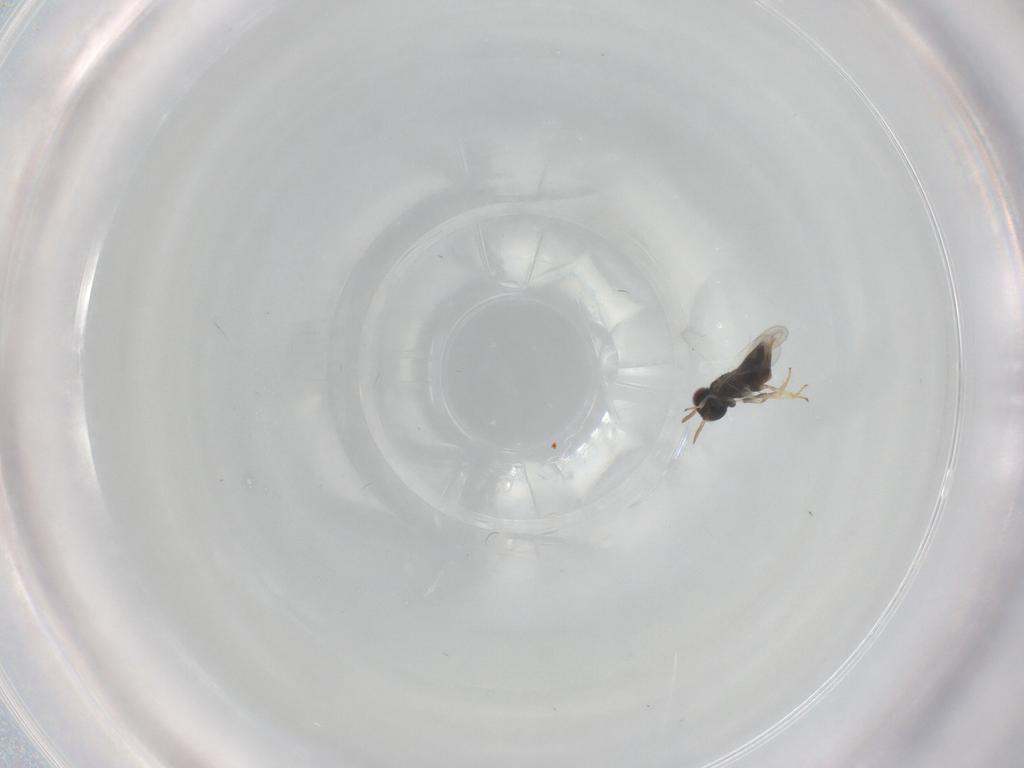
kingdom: Animalia
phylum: Arthropoda
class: Insecta
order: Hymenoptera
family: Aphelinidae
